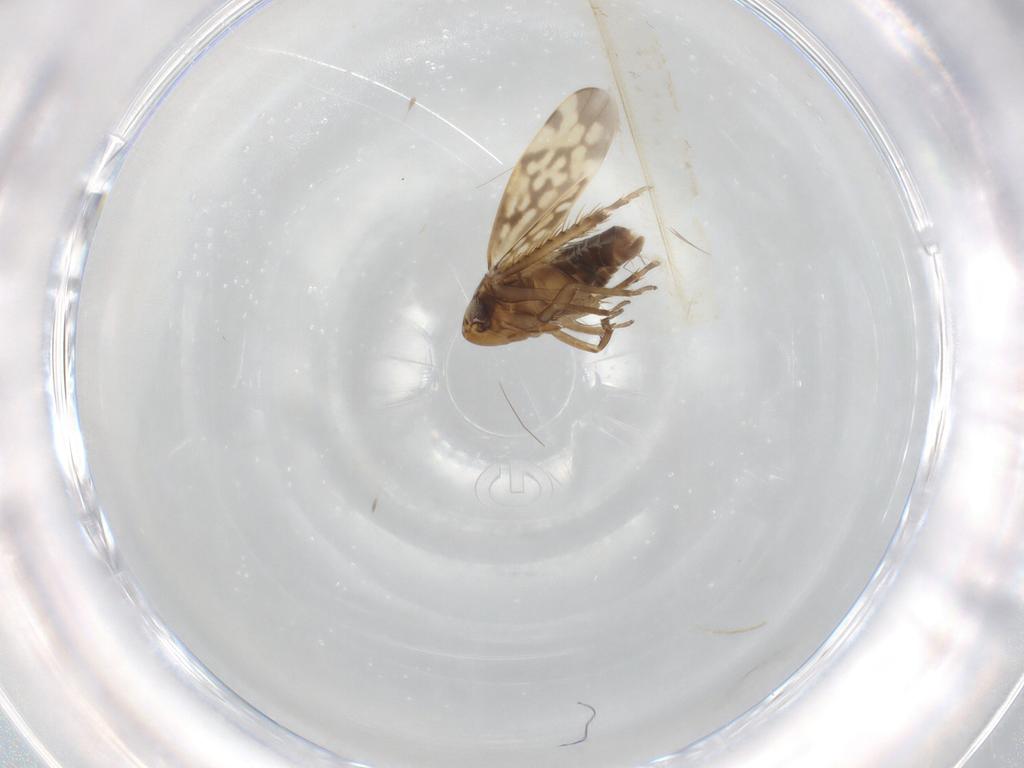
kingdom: Animalia
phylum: Arthropoda
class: Insecta
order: Hemiptera
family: Cicadellidae
